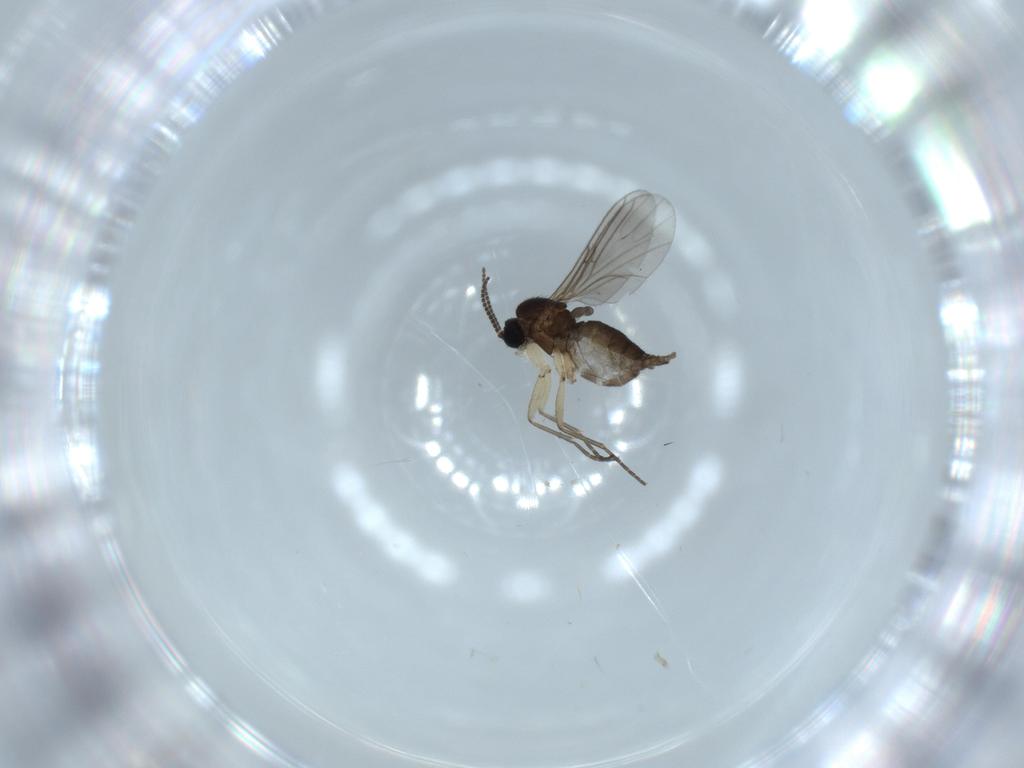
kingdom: Animalia
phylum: Arthropoda
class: Insecta
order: Diptera
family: Sciaridae
